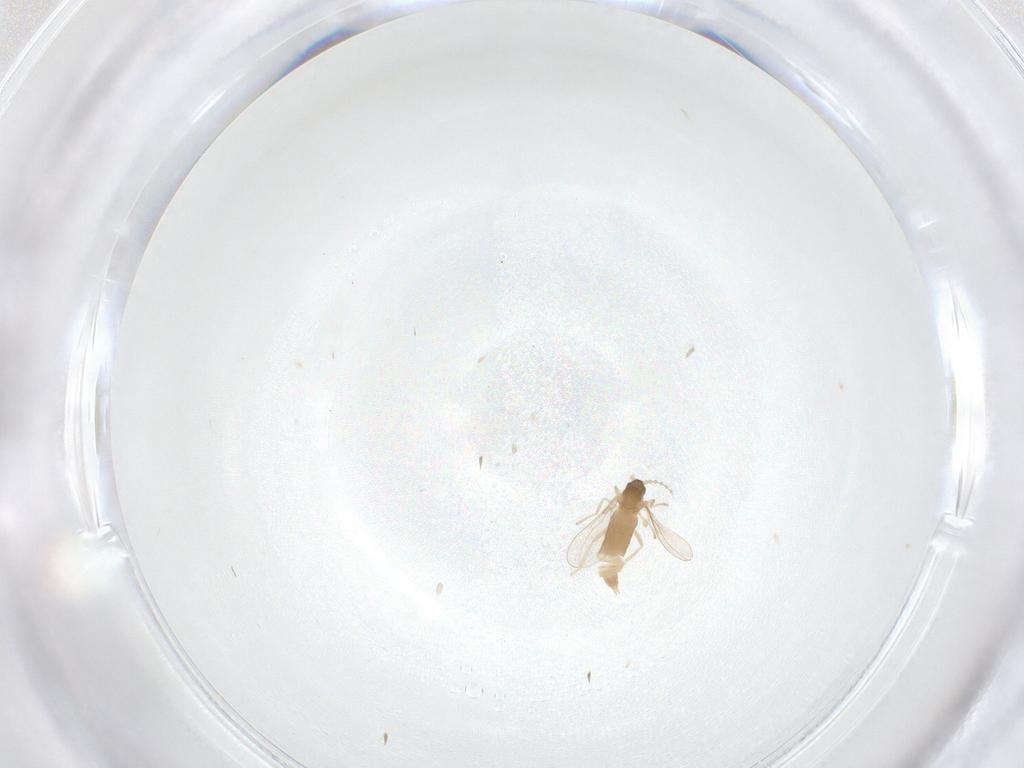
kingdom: Animalia
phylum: Arthropoda
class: Insecta
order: Diptera
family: Cecidomyiidae
